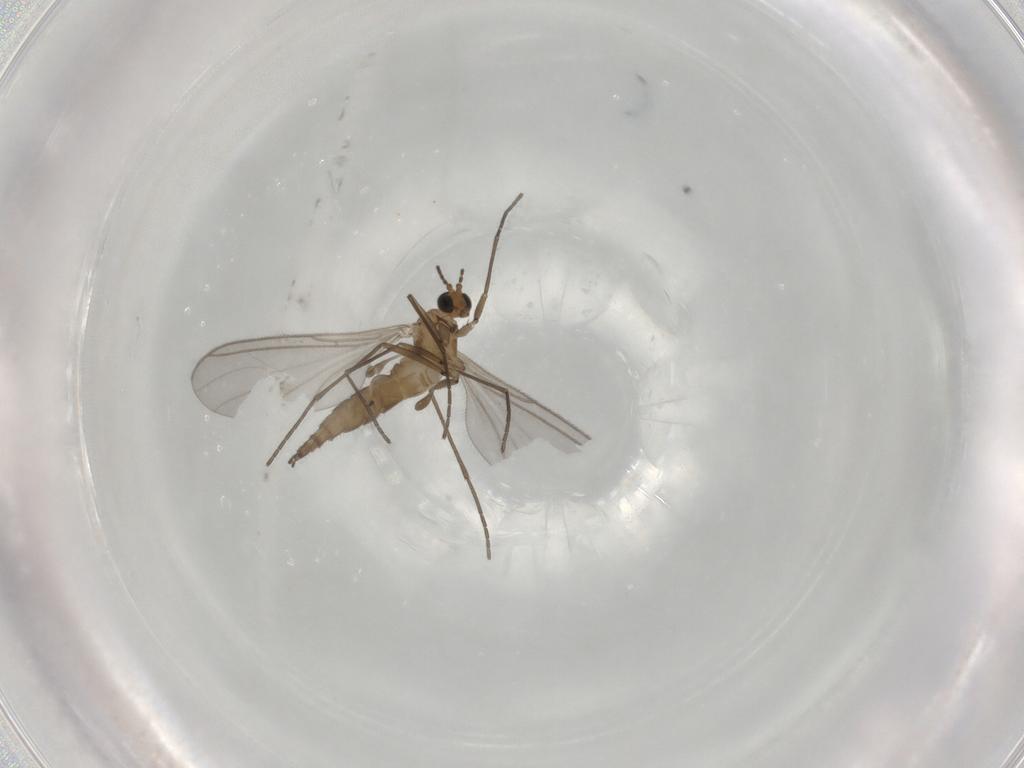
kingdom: Animalia
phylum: Arthropoda
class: Insecta
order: Diptera
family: Sciaridae
